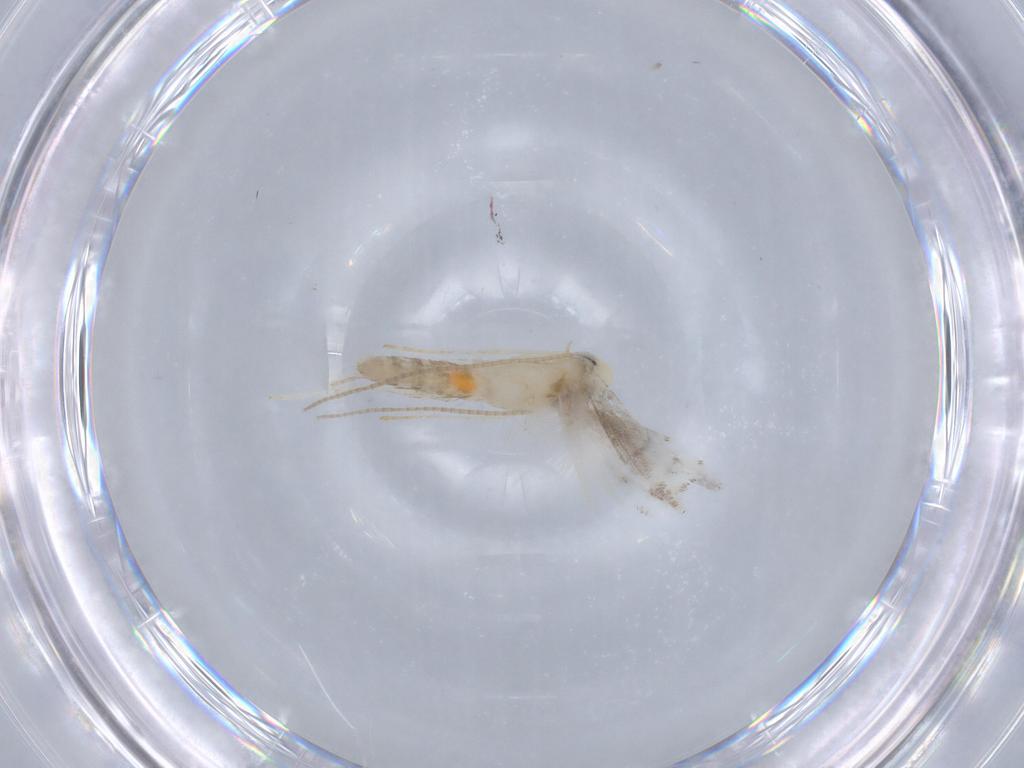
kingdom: Animalia
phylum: Arthropoda
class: Insecta
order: Lepidoptera
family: Gracillariidae
